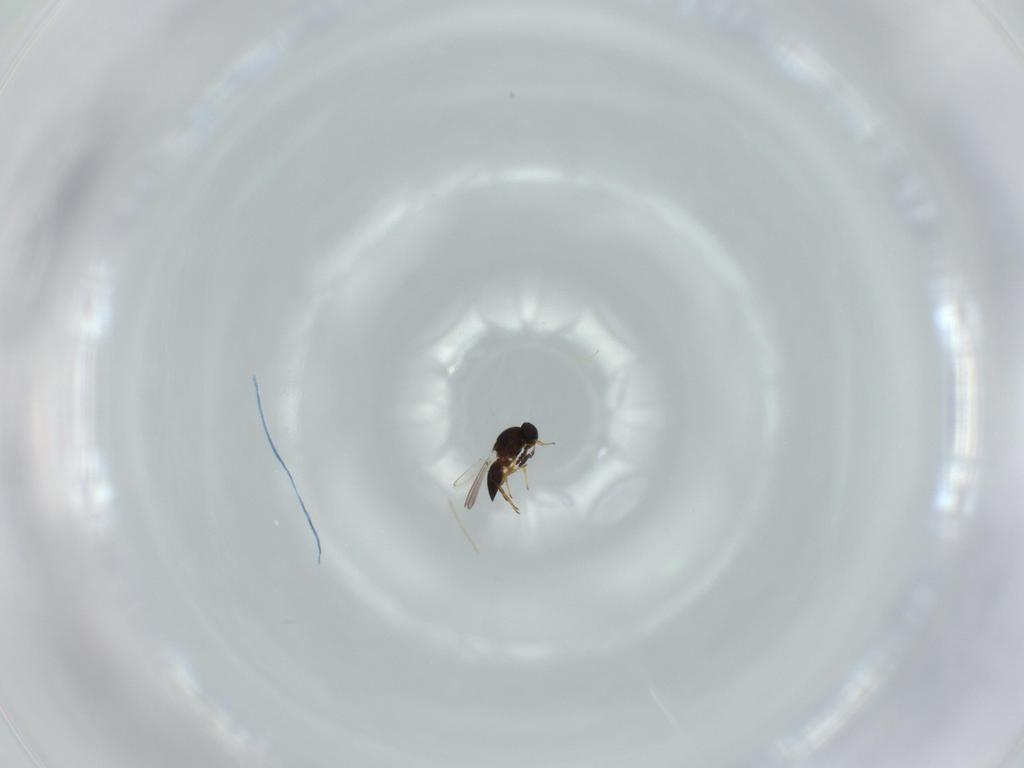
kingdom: Animalia
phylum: Arthropoda
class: Insecta
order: Hymenoptera
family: Platygastridae
